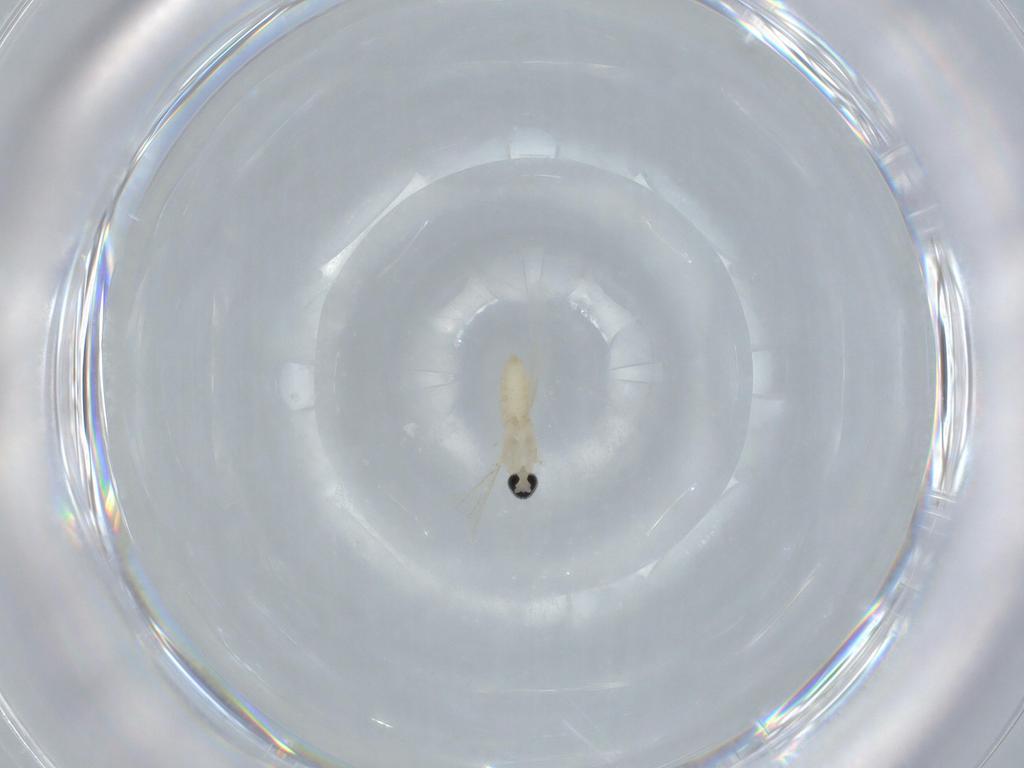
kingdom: Animalia
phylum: Arthropoda
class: Insecta
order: Diptera
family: Cecidomyiidae
